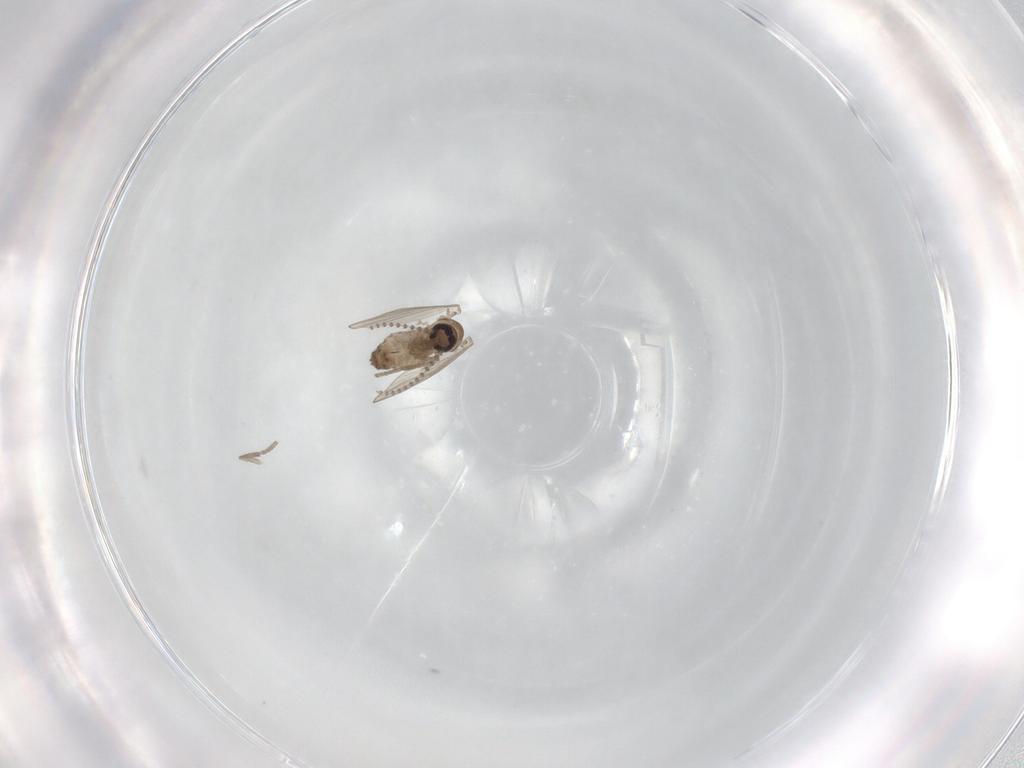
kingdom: Animalia
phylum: Arthropoda
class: Insecta
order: Diptera
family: Psychodidae
